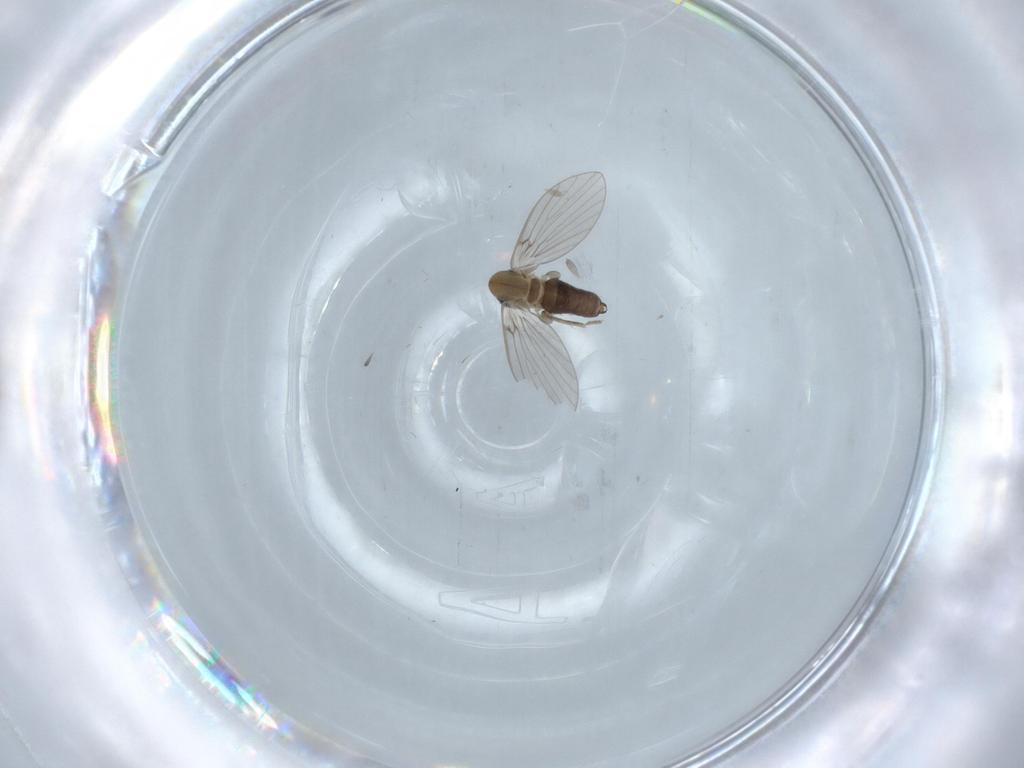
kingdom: Animalia
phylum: Arthropoda
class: Insecta
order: Diptera
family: Psychodidae
